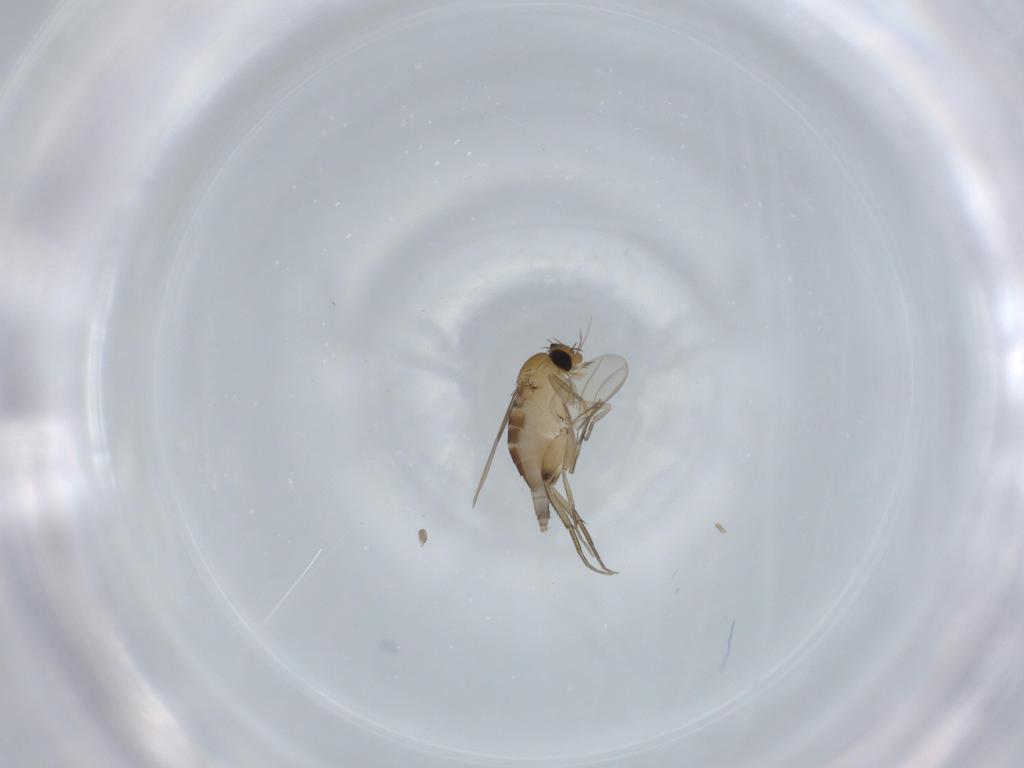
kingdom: Animalia
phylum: Arthropoda
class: Insecta
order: Diptera
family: Phoridae
